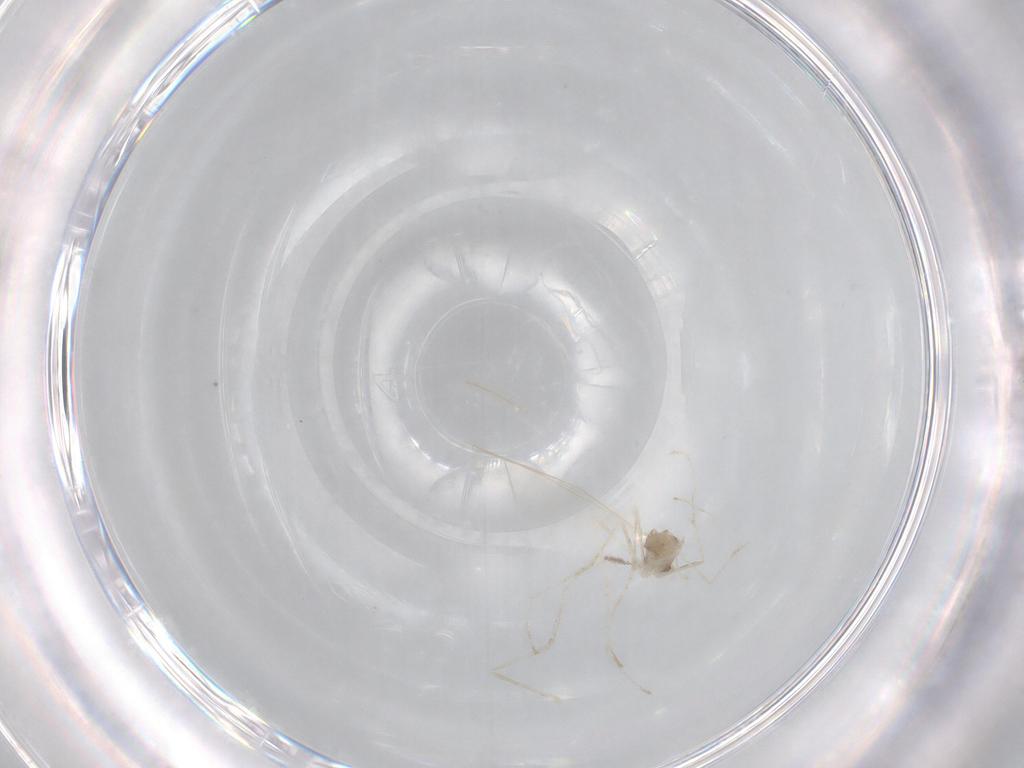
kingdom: Animalia
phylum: Arthropoda
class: Insecta
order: Diptera
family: Cecidomyiidae
